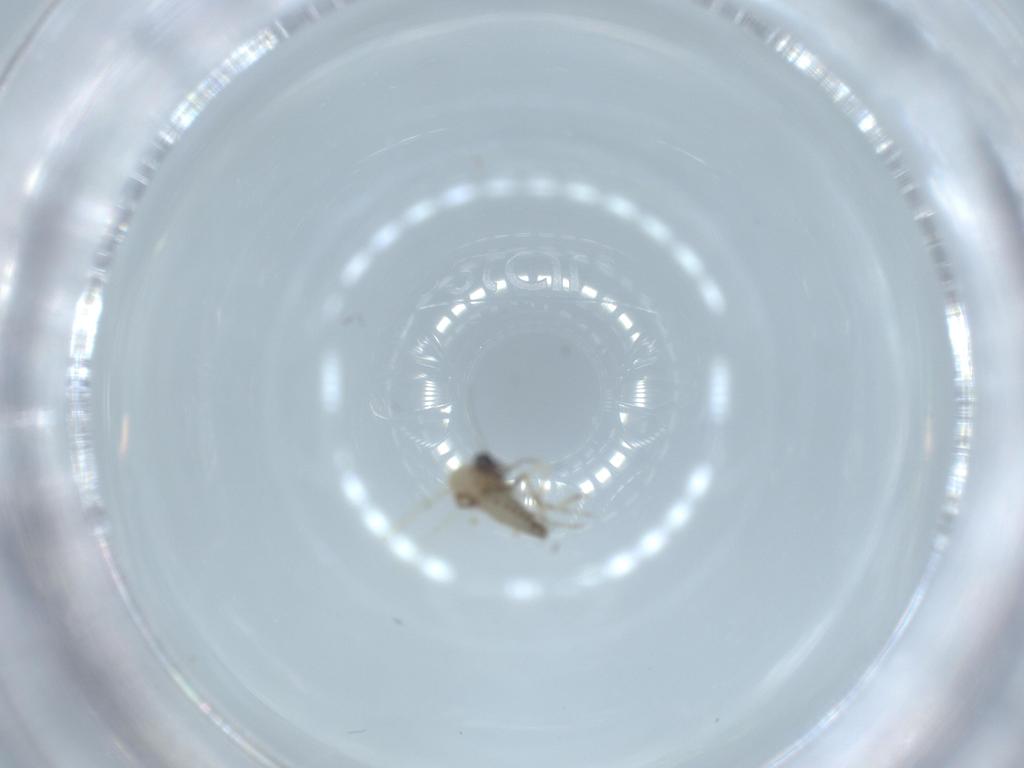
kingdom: Animalia
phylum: Arthropoda
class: Insecta
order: Diptera
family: Ceratopogonidae
